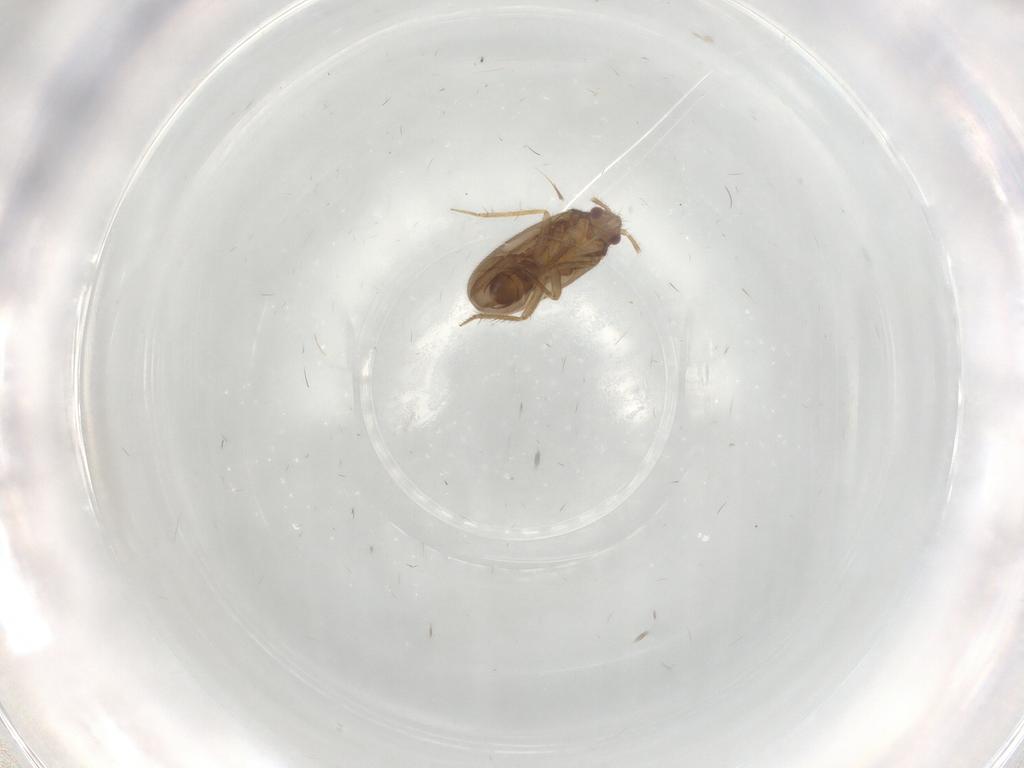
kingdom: Animalia
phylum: Arthropoda
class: Insecta
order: Hemiptera
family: Ceratocombidae
